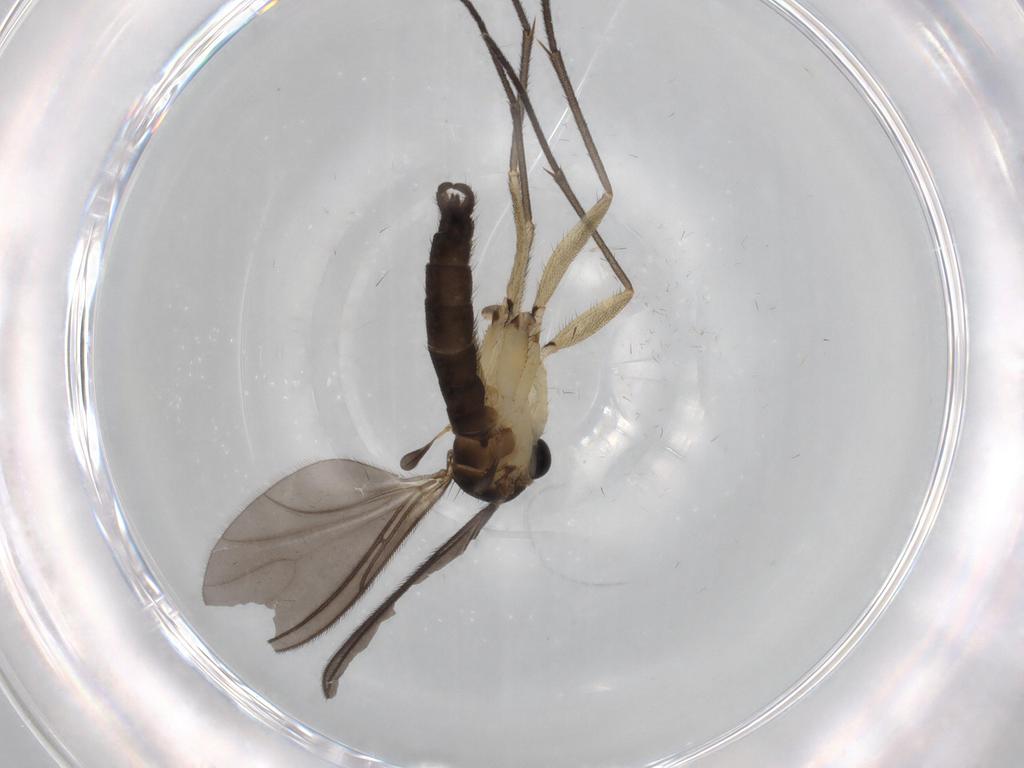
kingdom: Animalia
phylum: Arthropoda
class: Insecta
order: Diptera
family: Sciaridae
